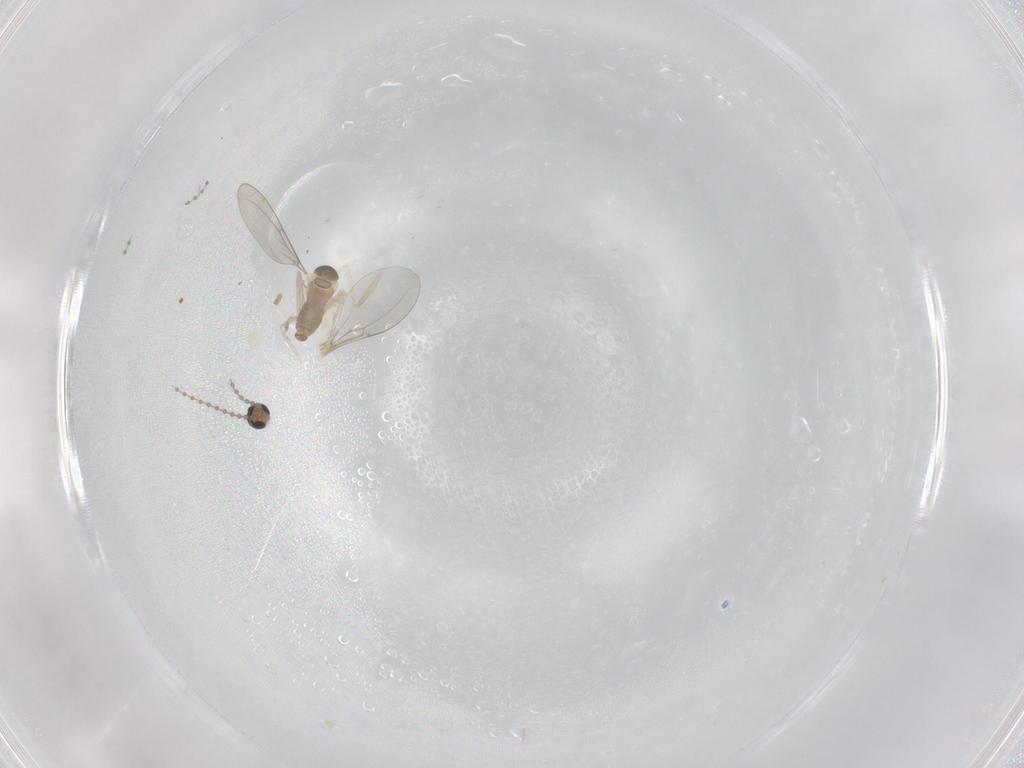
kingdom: Animalia
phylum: Arthropoda
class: Insecta
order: Diptera
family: Cecidomyiidae
